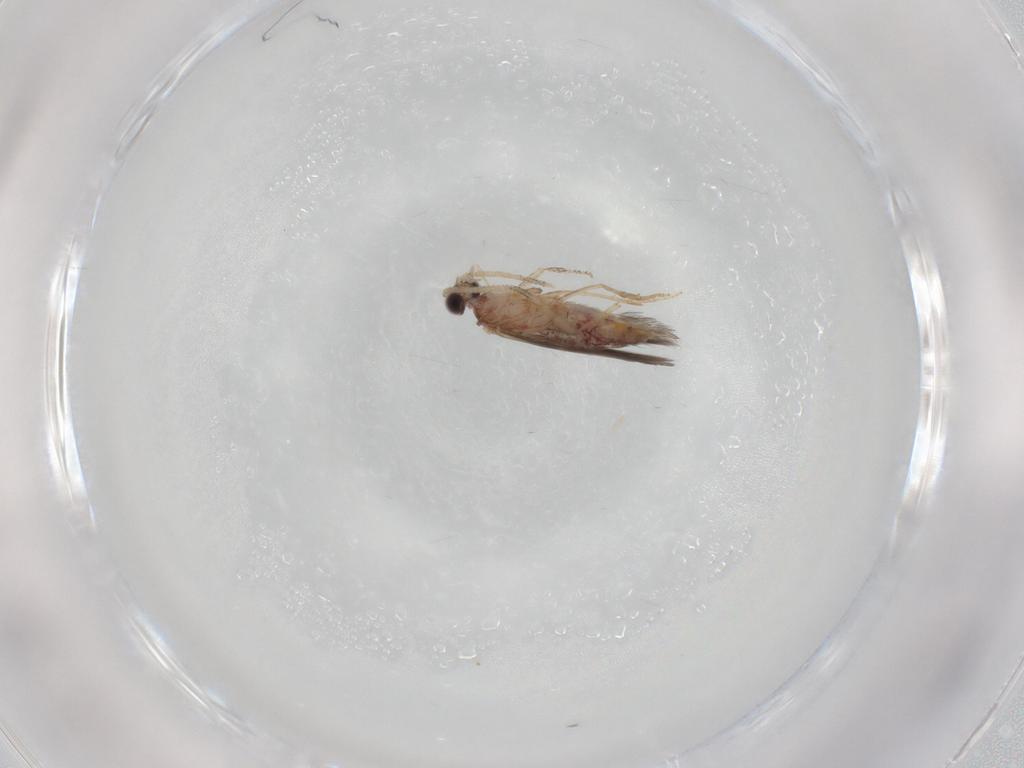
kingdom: Animalia
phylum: Arthropoda
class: Insecta
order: Trichoptera
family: Hydroptilidae
